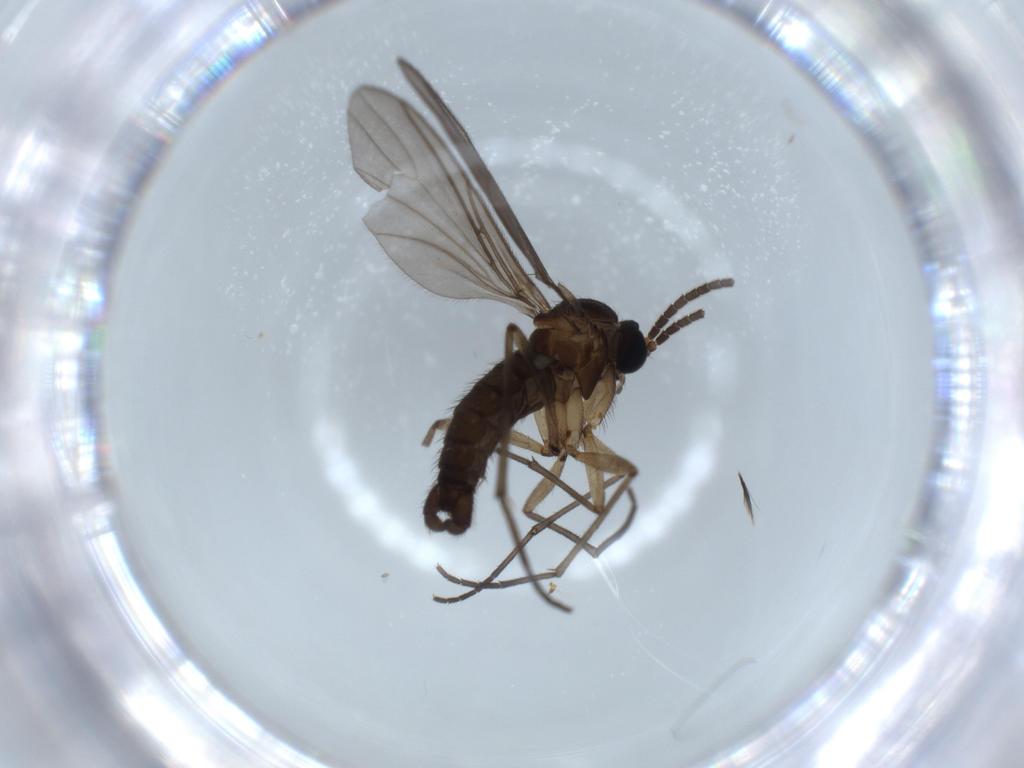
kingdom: Animalia
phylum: Arthropoda
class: Insecta
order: Diptera
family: Sciaridae
